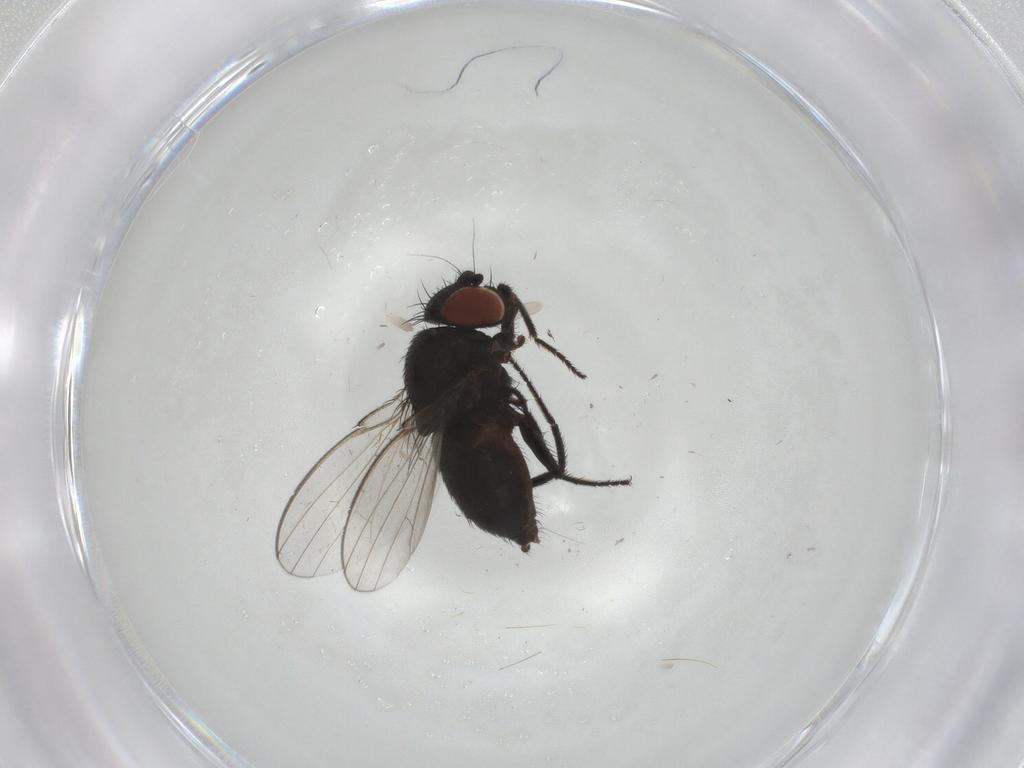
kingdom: Animalia
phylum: Arthropoda
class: Insecta
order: Diptera
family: Milichiidae
